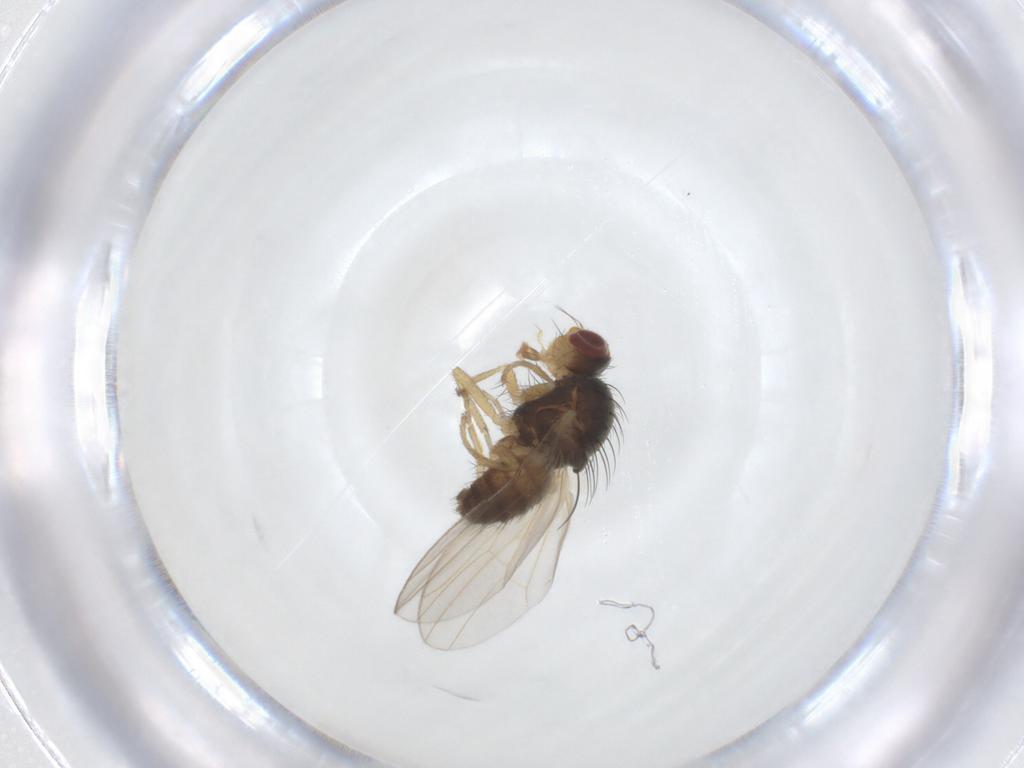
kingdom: Animalia
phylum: Arthropoda
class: Insecta
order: Diptera
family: Heleomyzidae
